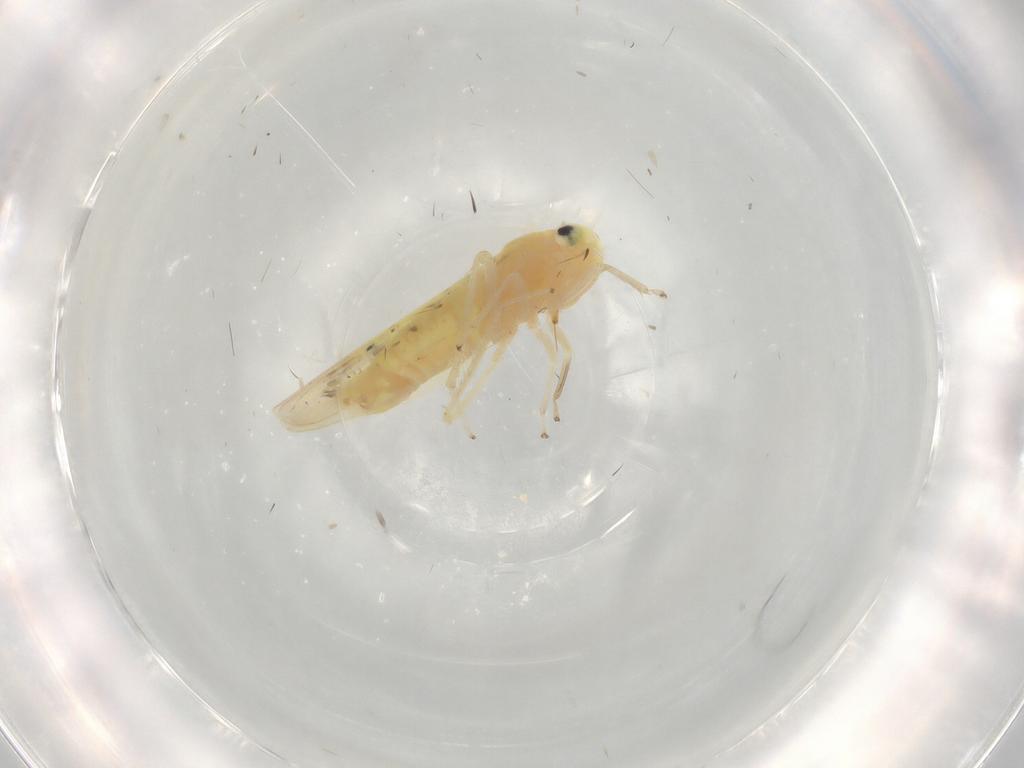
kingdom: Animalia
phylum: Arthropoda
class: Insecta
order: Hemiptera
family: Cicadellidae
